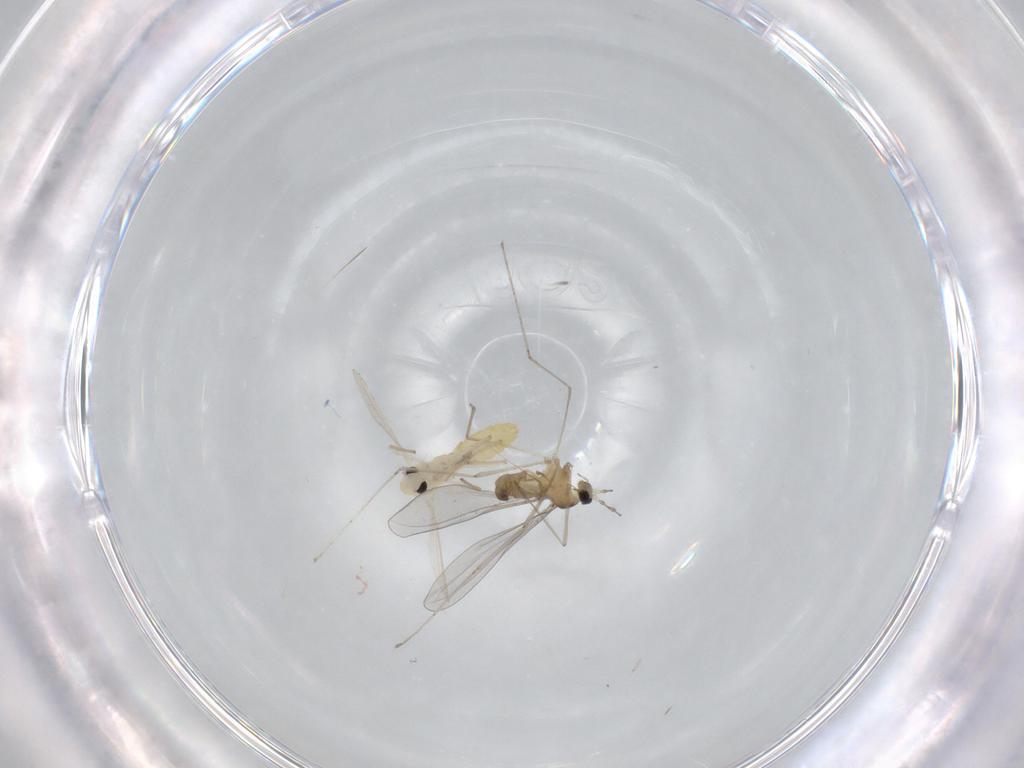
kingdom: Animalia
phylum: Arthropoda
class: Insecta
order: Diptera
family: Cecidomyiidae
